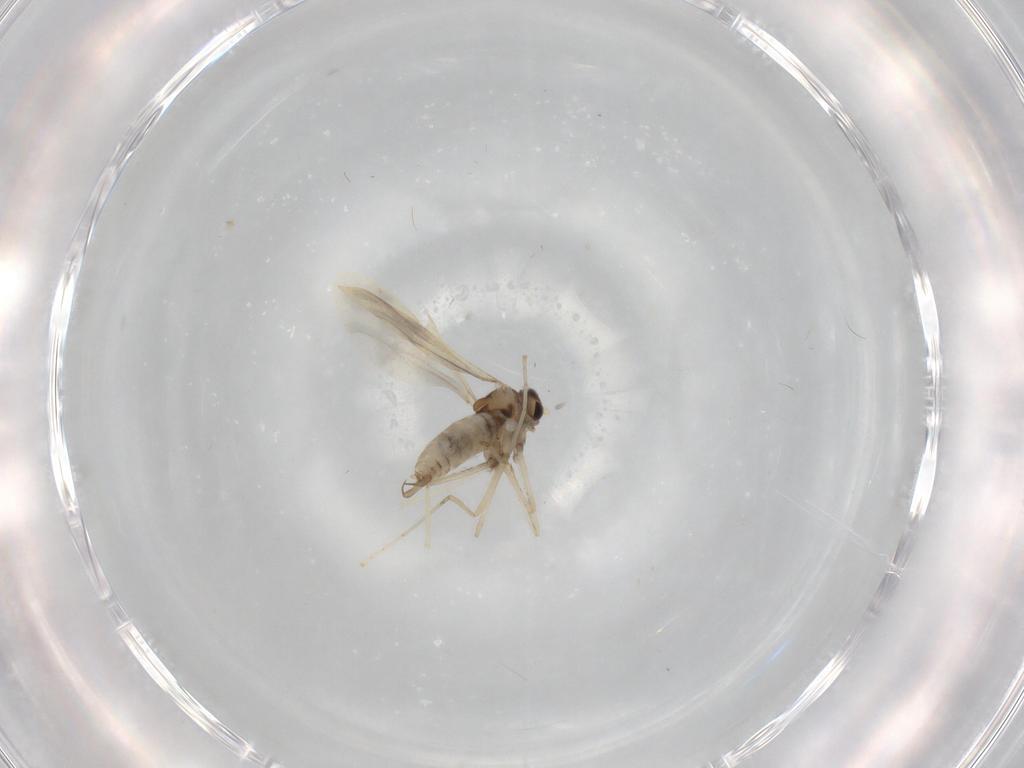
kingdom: Animalia
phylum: Arthropoda
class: Insecta
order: Diptera
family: Cecidomyiidae
